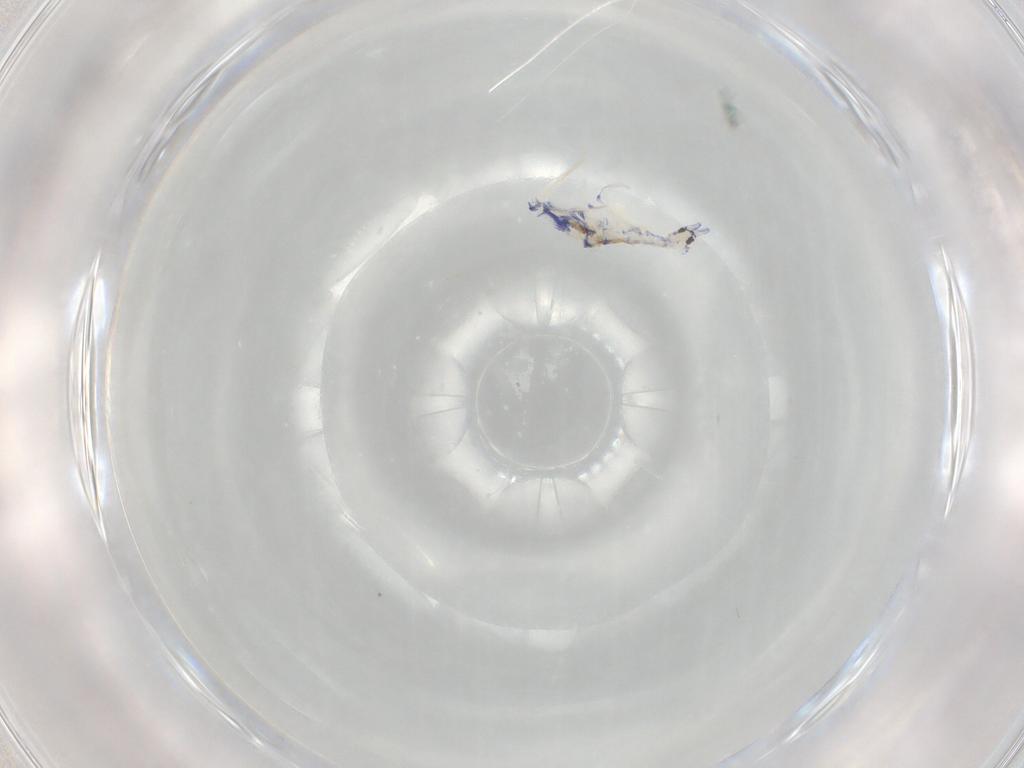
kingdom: Animalia
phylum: Arthropoda
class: Collembola
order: Entomobryomorpha
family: Entomobryidae
